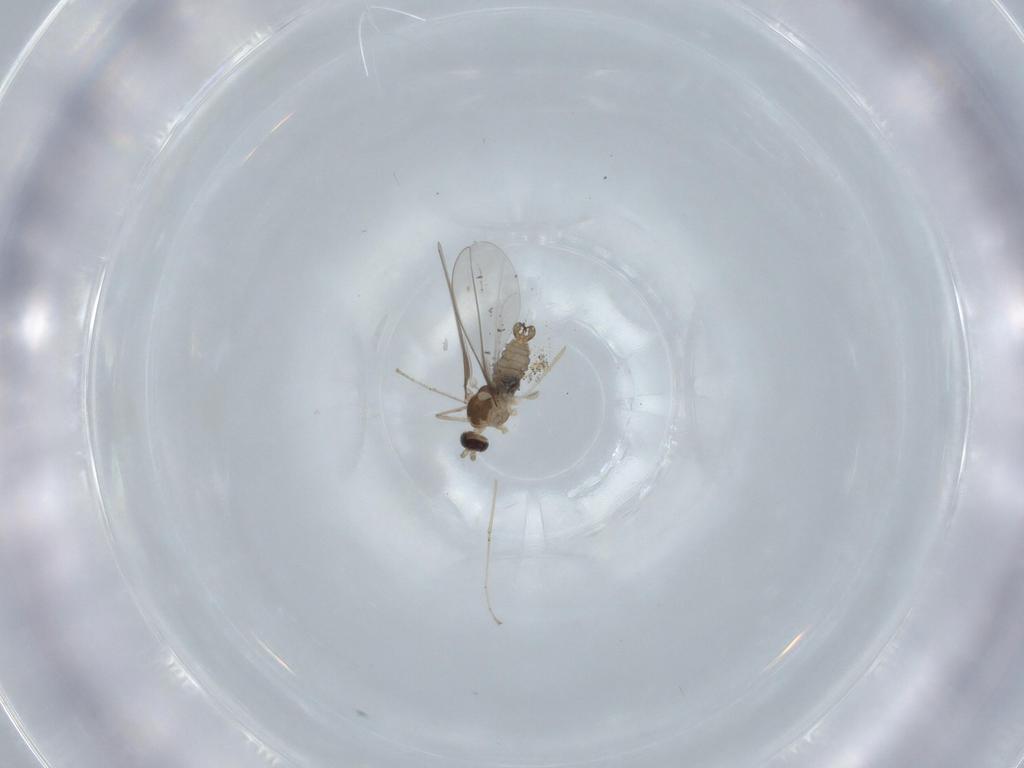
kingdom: Animalia
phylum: Arthropoda
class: Insecta
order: Diptera
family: Cecidomyiidae
